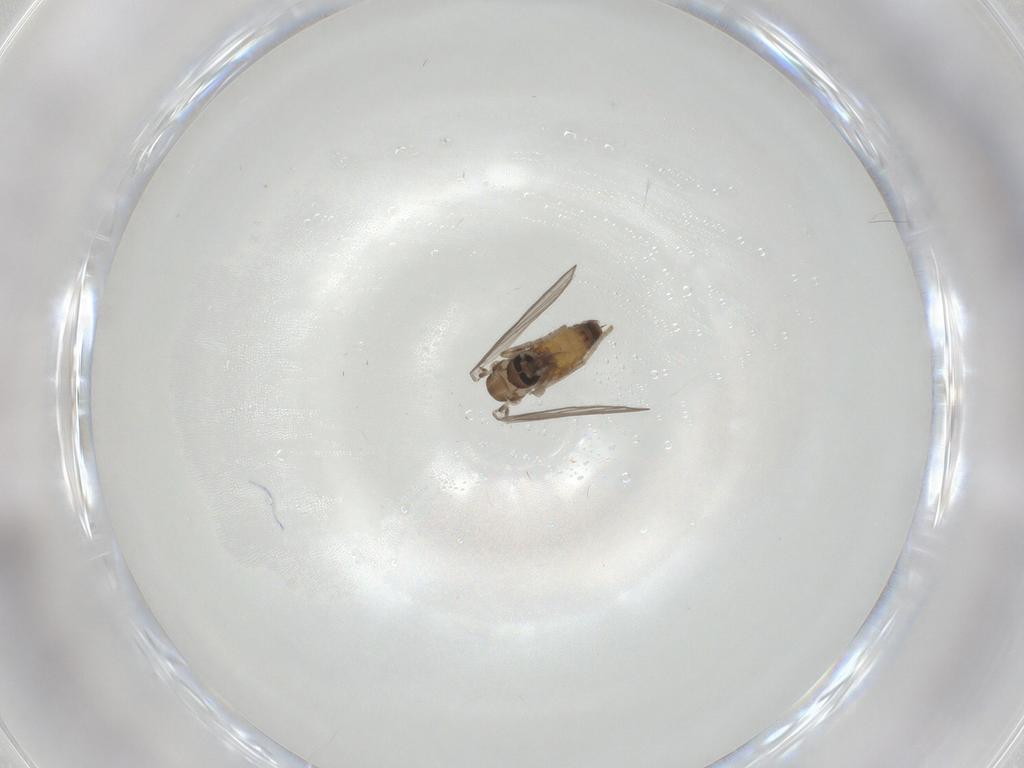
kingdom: Animalia
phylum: Arthropoda
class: Insecta
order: Diptera
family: Psychodidae
